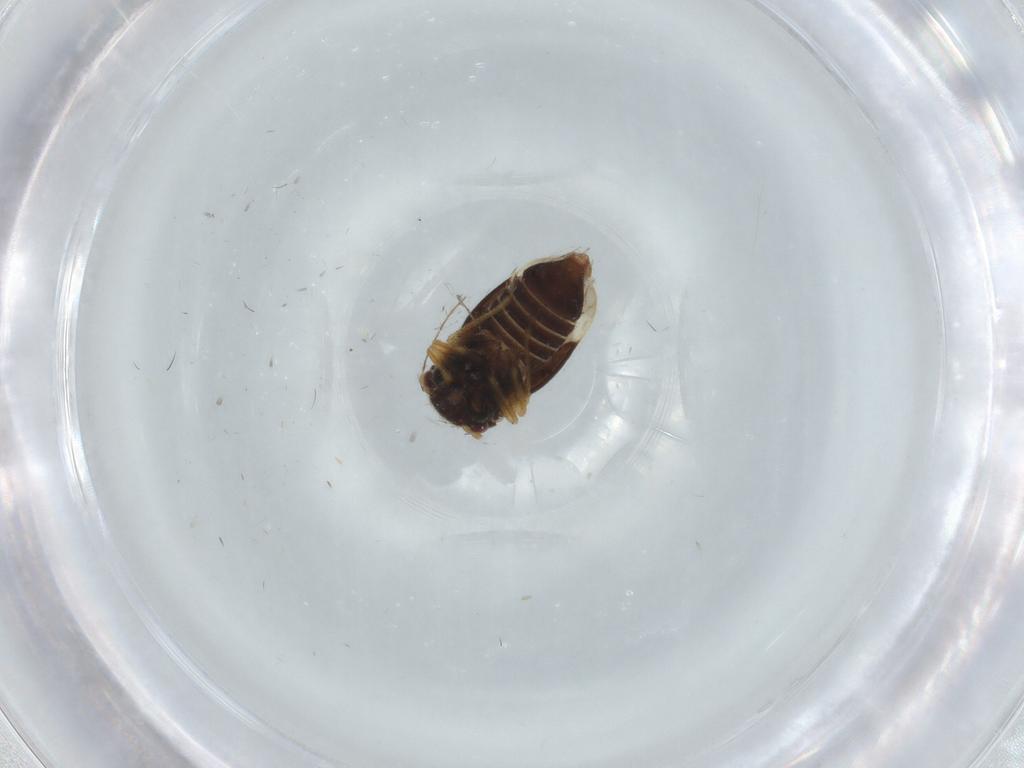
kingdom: Animalia
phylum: Arthropoda
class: Insecta
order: Hemiptera
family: Schizopteridae
